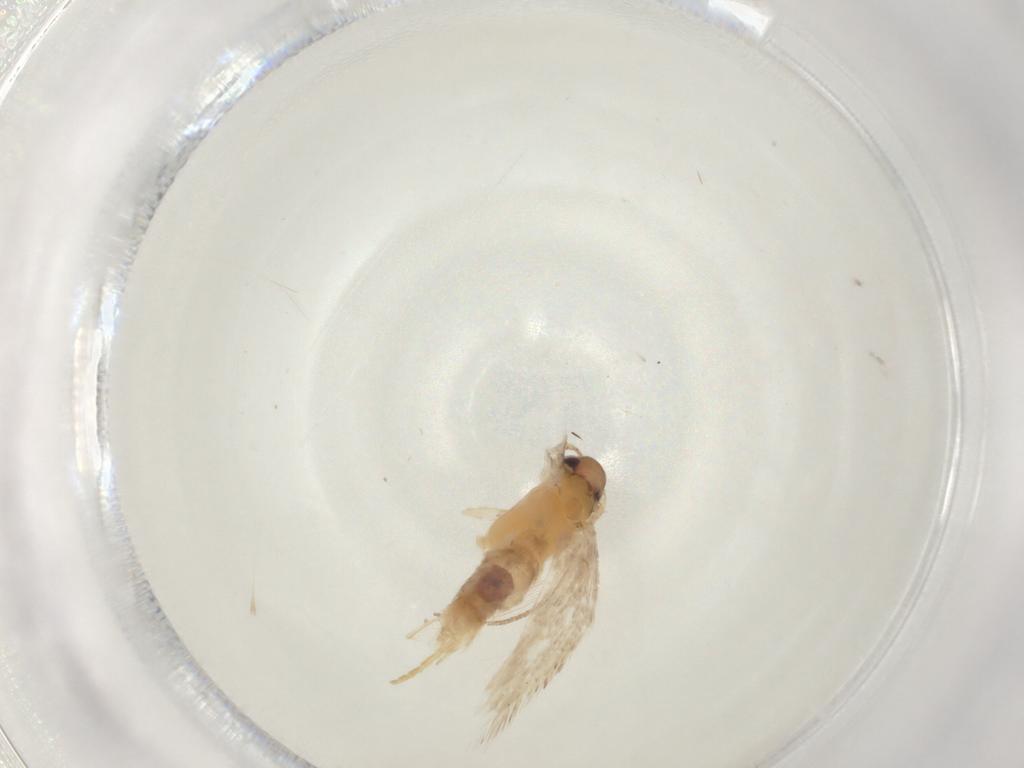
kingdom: Animalia
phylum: Arthropoda
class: Insecta
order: Lepidoptera
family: Gelechiidae
